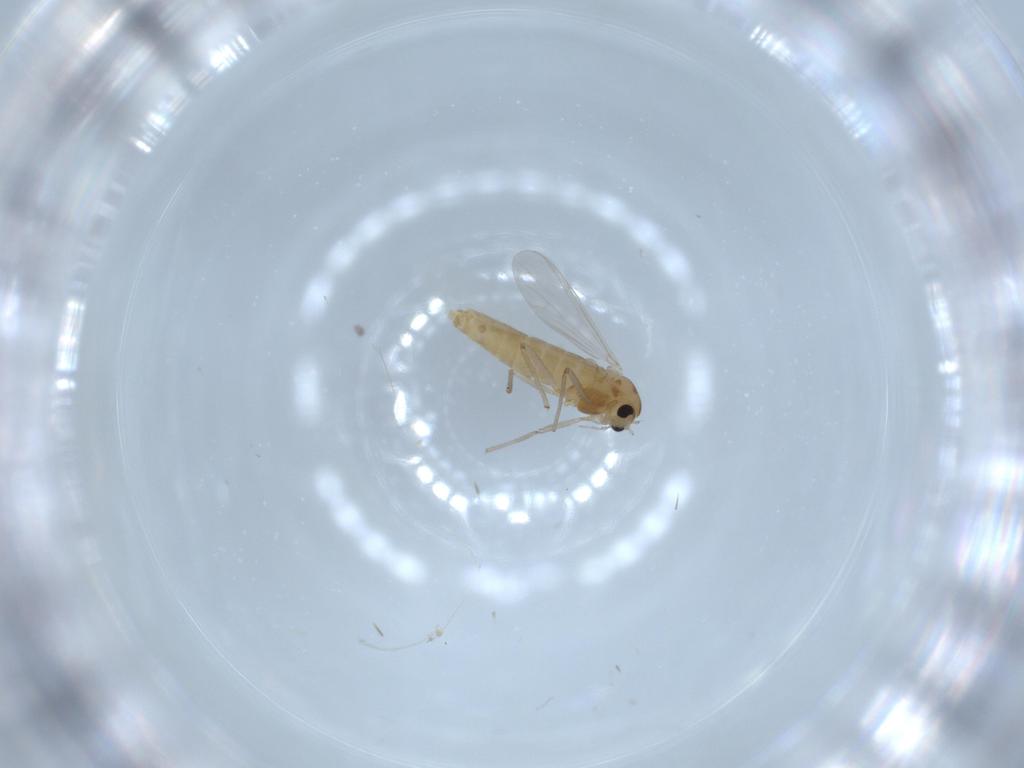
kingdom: Animalia
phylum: Arthropoda
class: Insecta
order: Diptera
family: Chironomidae
